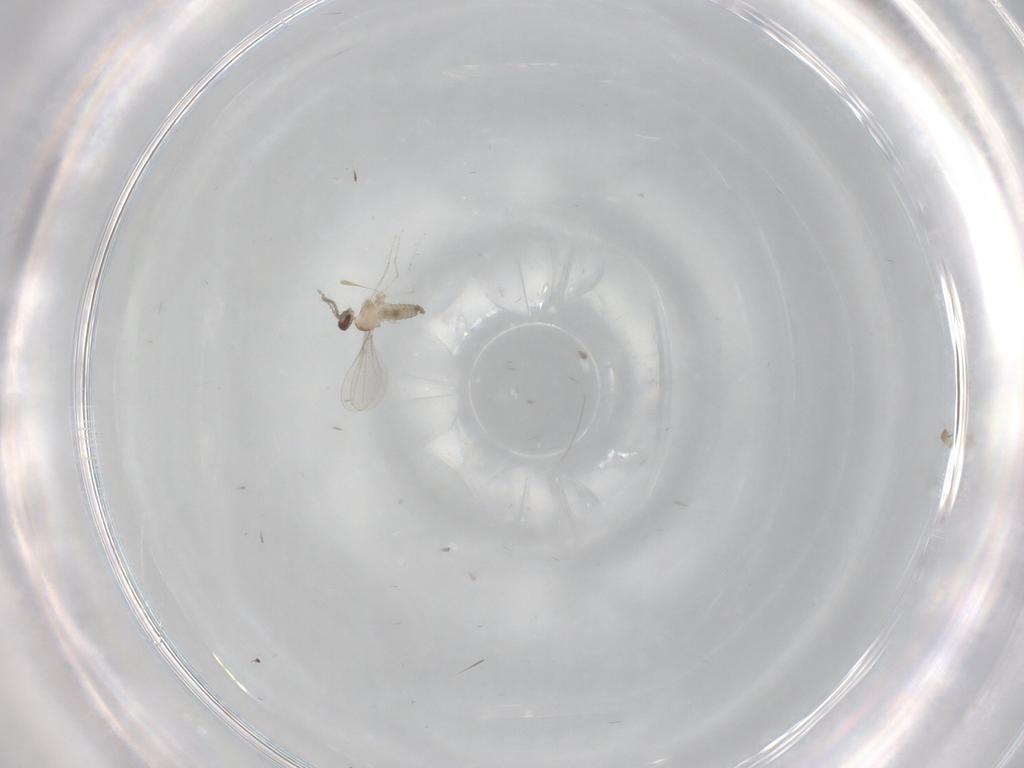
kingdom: Animalia
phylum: Arthropoda
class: Insecta
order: Diptera
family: Cecidomyiidae
